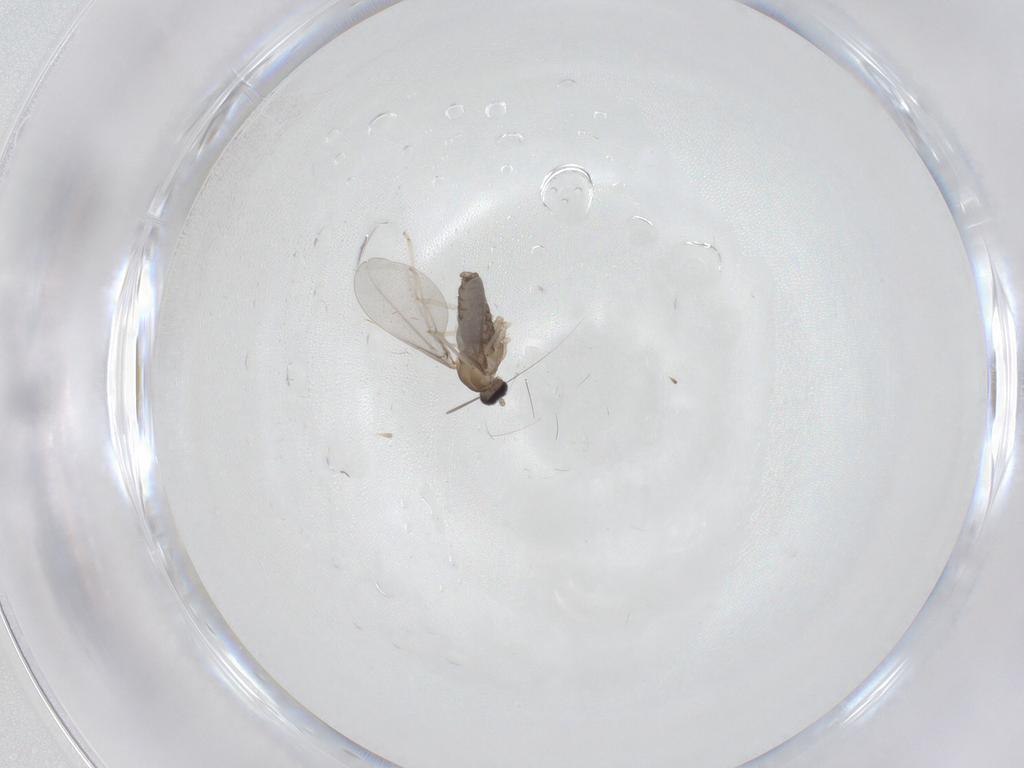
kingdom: Animalia
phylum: Arthropoda
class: Insecta
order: Diptera
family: Cecidomyiidae
